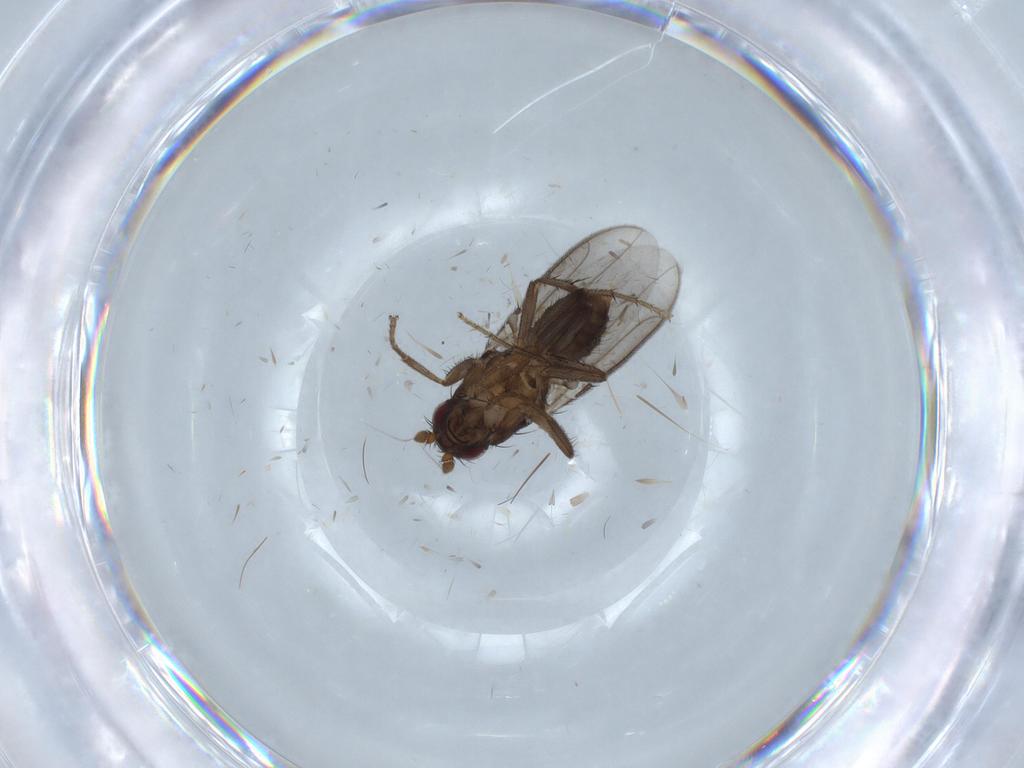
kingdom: Animalia
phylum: Arthropoda
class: Insecta
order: Diptera
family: Sphaeroceridae
